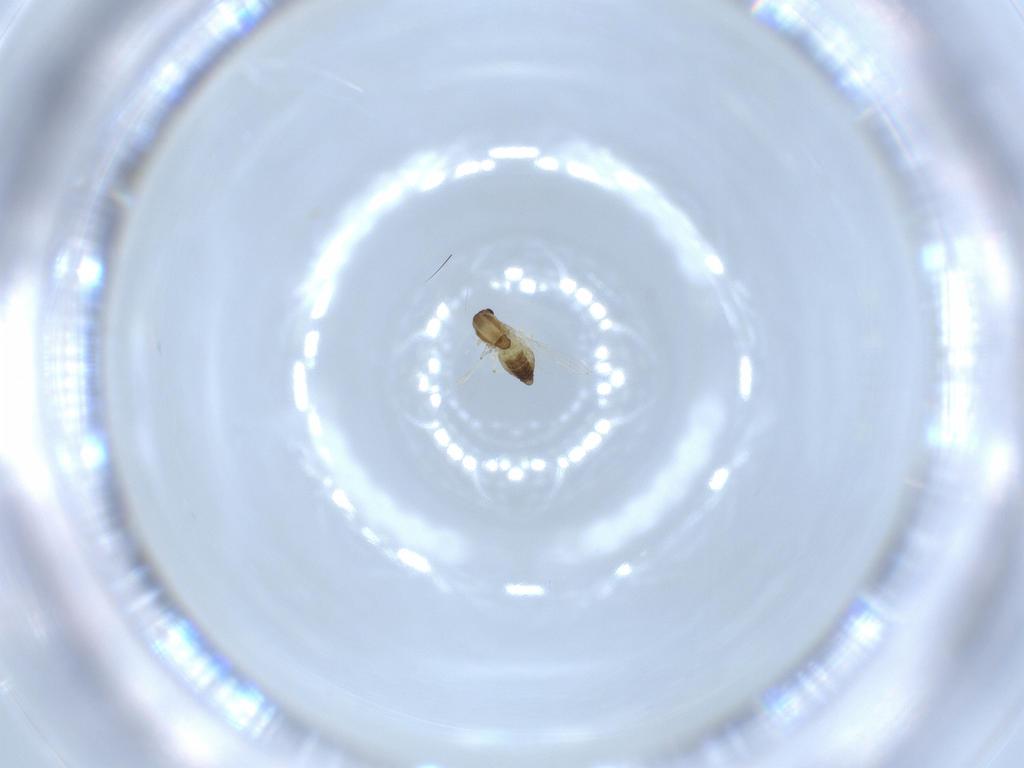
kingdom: Animalia
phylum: Arthropoda
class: Insecta
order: Diptera
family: Chironomidae
